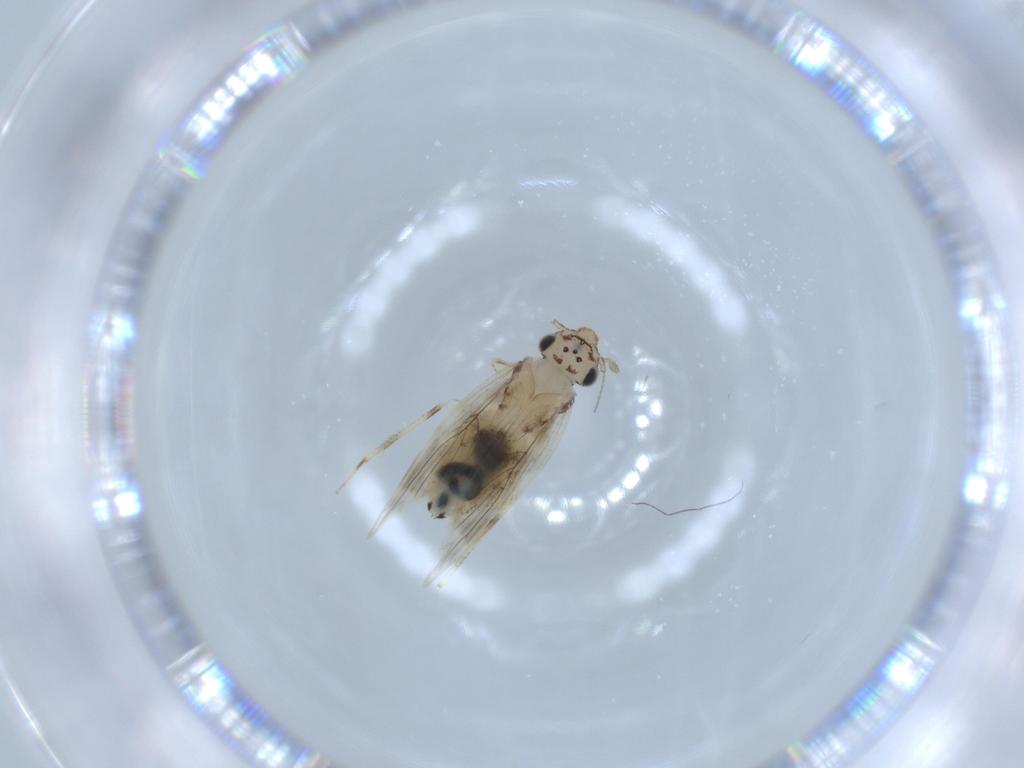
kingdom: Animalia
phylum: Arthropoda
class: Insecta
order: Psocodea
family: Lepidopsocidae
